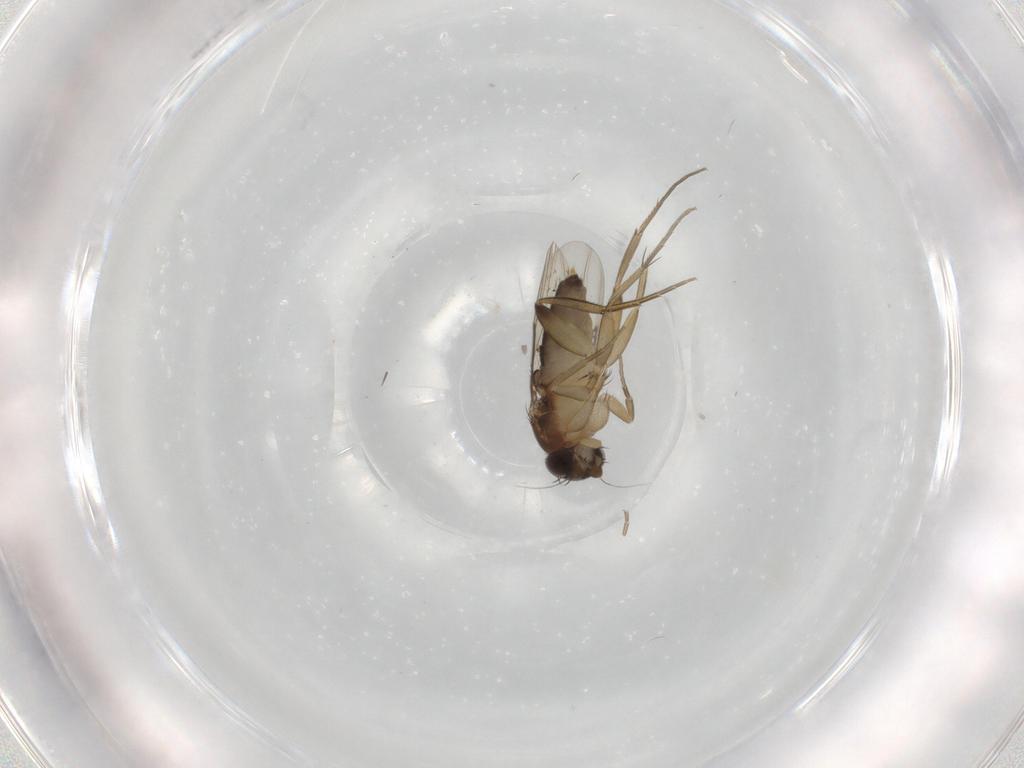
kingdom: Animalia
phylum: Arthropoda
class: Insecta
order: Diptera
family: Phoridae
